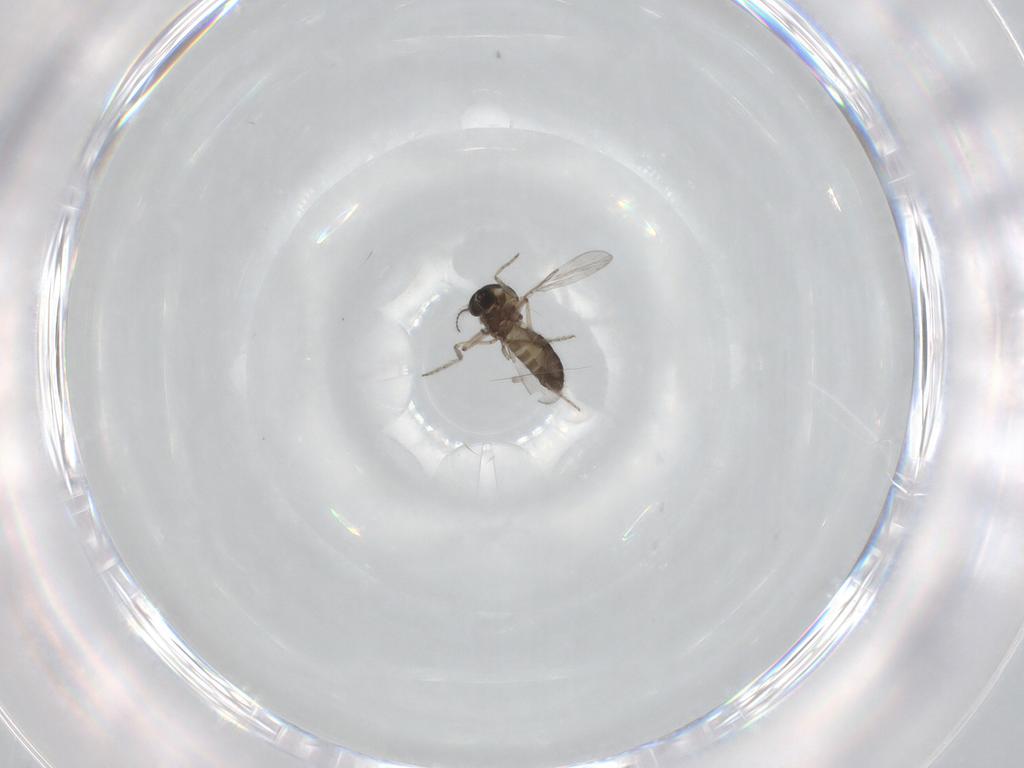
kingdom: Animalia
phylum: Arthropoda
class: Insecta
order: Diptera
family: Ceratopogonidae
